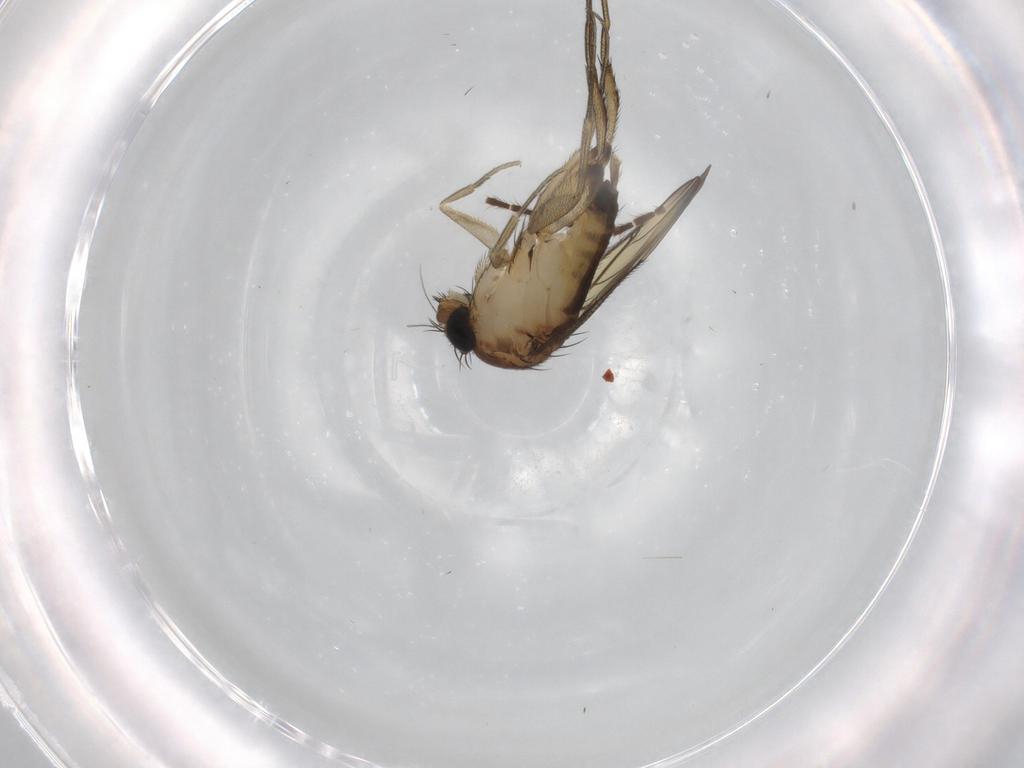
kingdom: Animalia
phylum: Arthropoda
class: Insecta
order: Diptera
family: Phoridae
